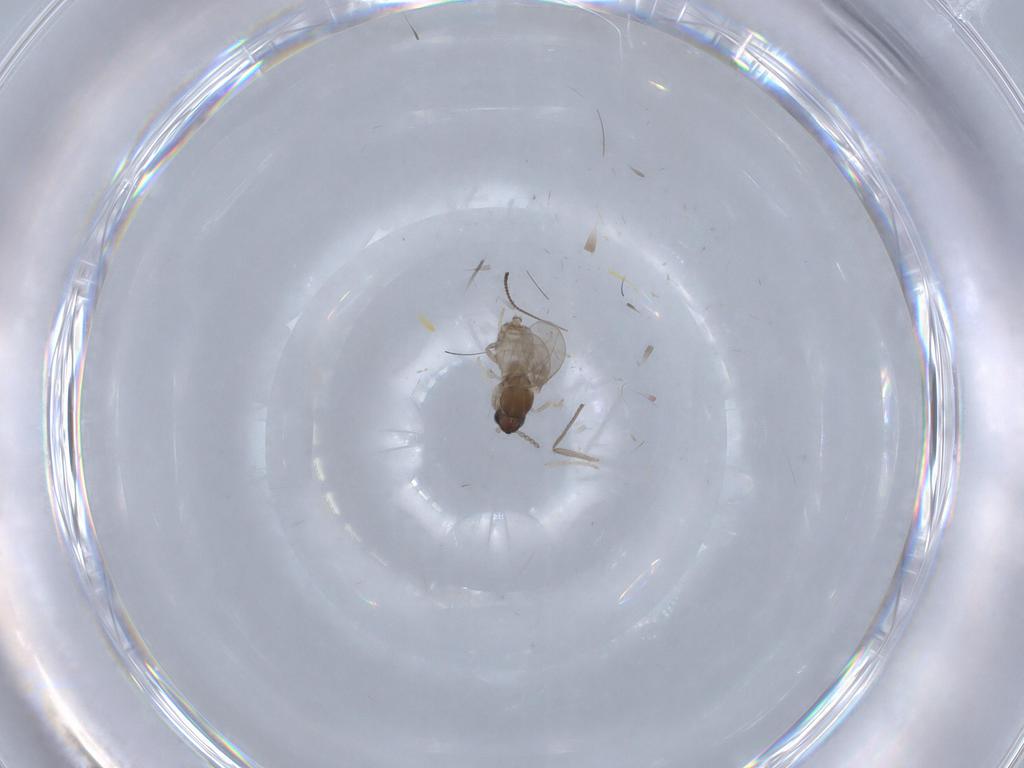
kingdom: Animalia
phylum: Arthropoda
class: Insecta
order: Diptera
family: Chironomidae
